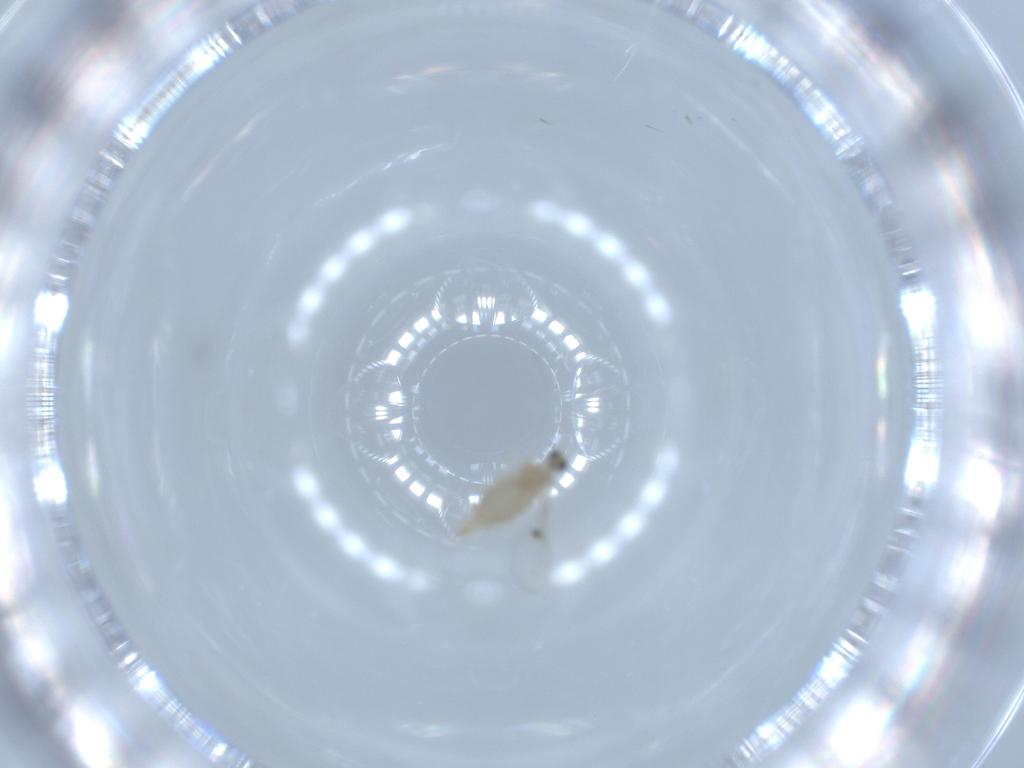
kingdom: Animalia
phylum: Arthropoda
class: Insecta
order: Diptera
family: Cecidomyiidae
